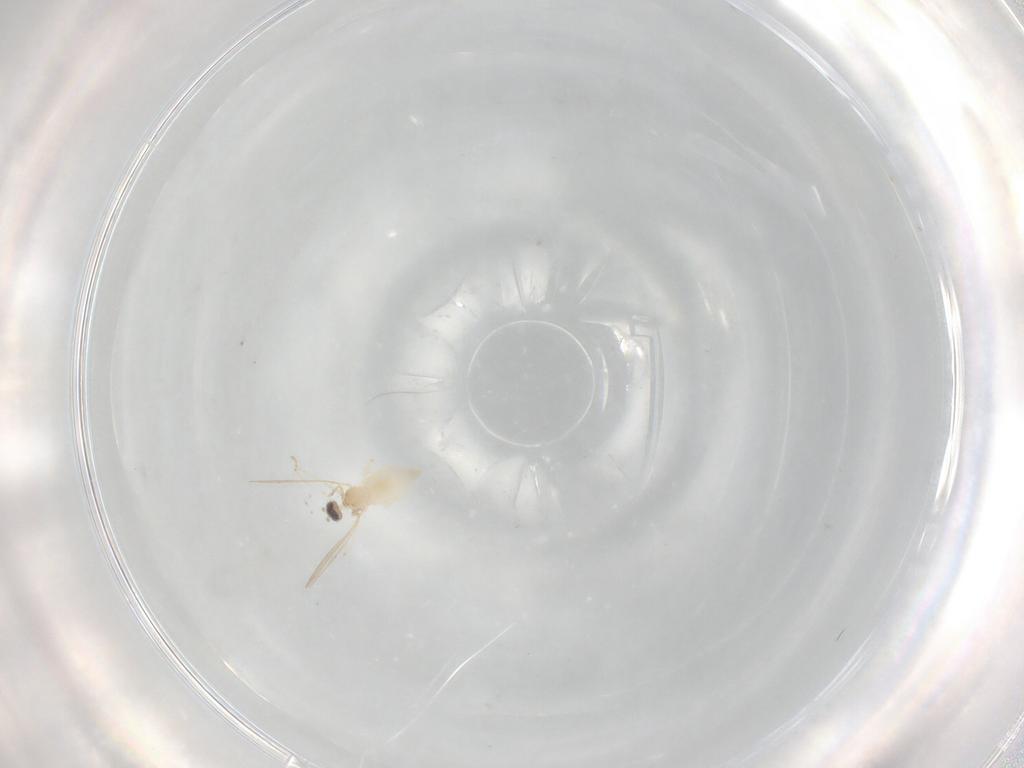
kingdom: Animalia
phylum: Arthropoda
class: Insecta
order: Diptera
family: Cecidomyiidae
